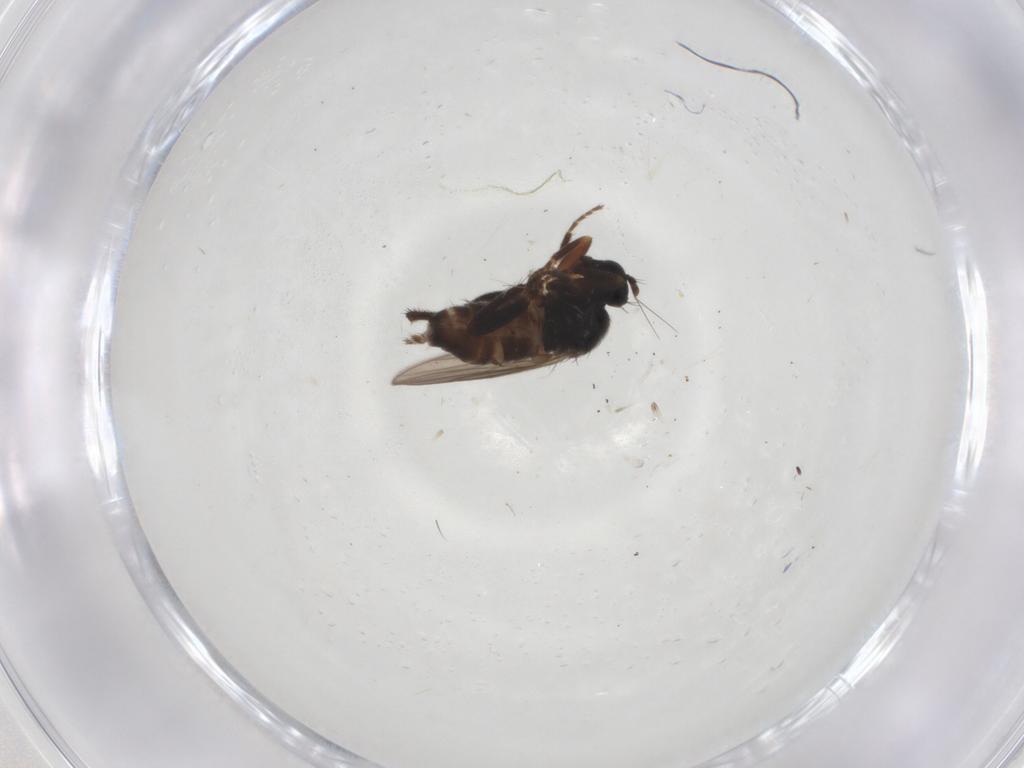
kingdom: Animalia
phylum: Arthropoda
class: Insecta
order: Diptera
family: Hybotidae
